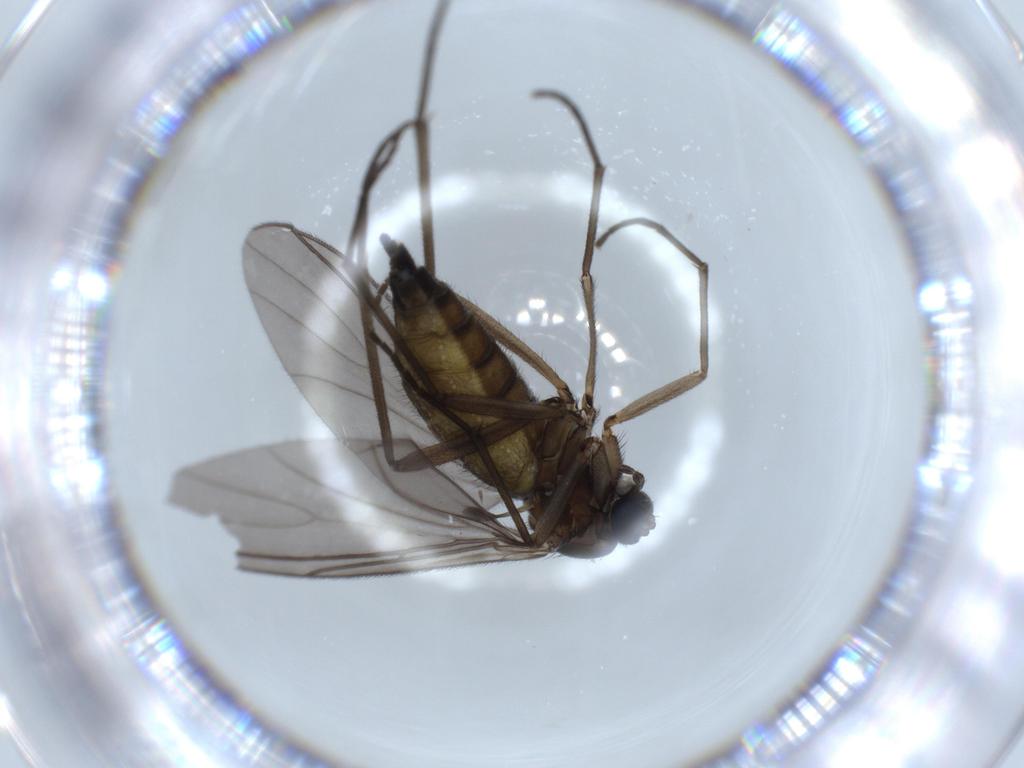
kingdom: Animalia
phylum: Arthropoda
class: Insecta
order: Diptera
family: Sciaridae
